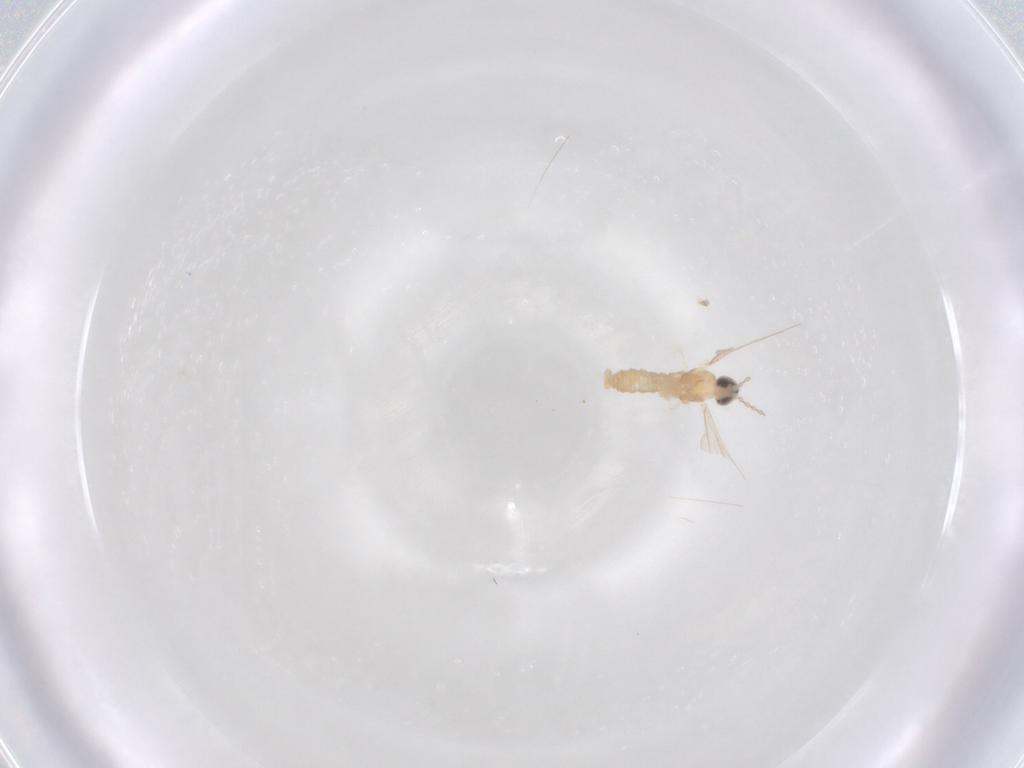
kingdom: Animalia
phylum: Arthropoda
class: Insecta
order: Diptera
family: Cecidomyiidae
